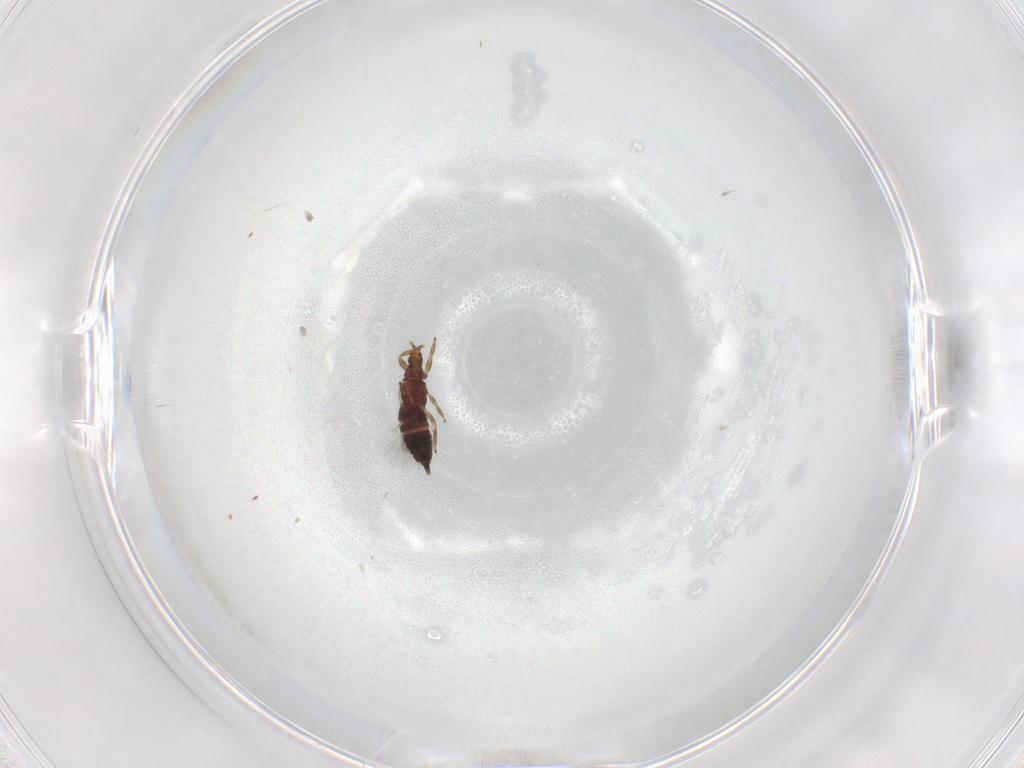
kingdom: Animalia
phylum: Arthropoda
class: Insecta
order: Thysanoptera
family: Phlaeothripidae
